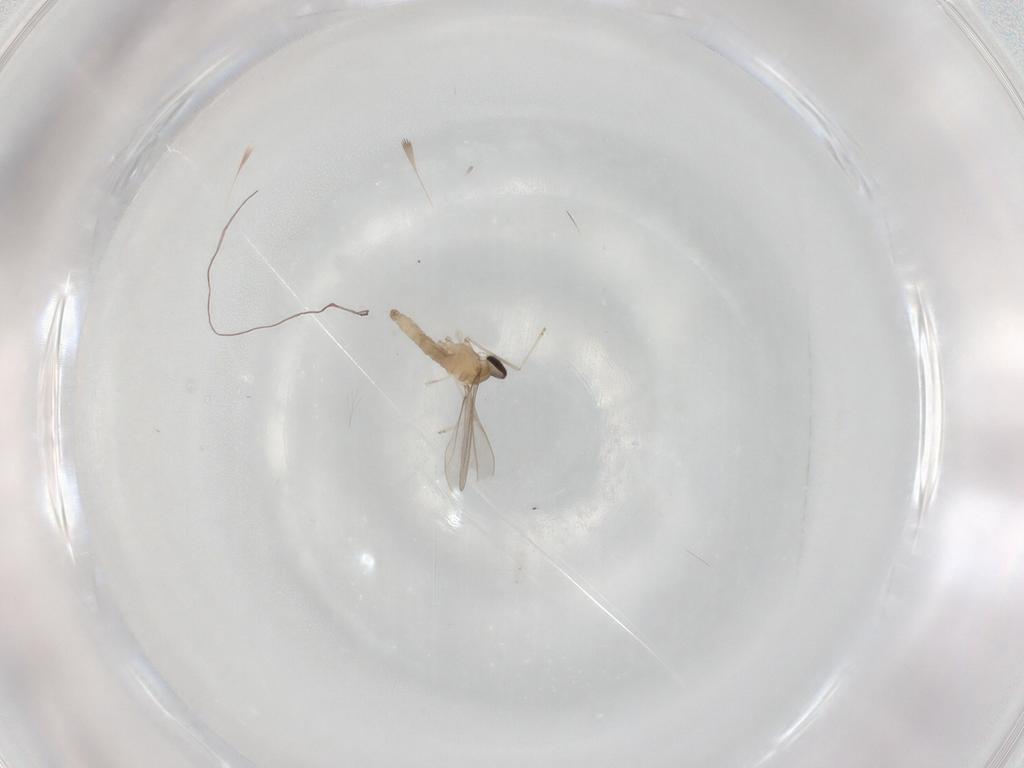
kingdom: Animalia
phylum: Arthropoda
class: Insecta
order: Diptera
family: Cecidomyiidae
